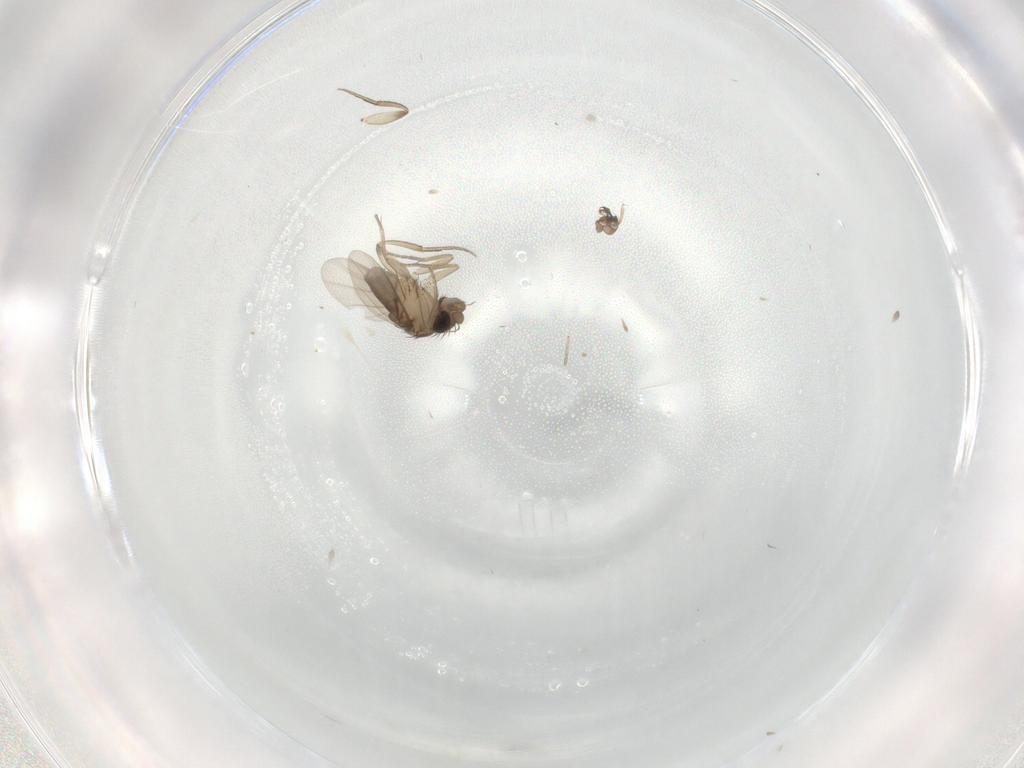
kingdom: Animalia
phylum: Arthropoda
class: Insecta
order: Diptera
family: Phoridae
